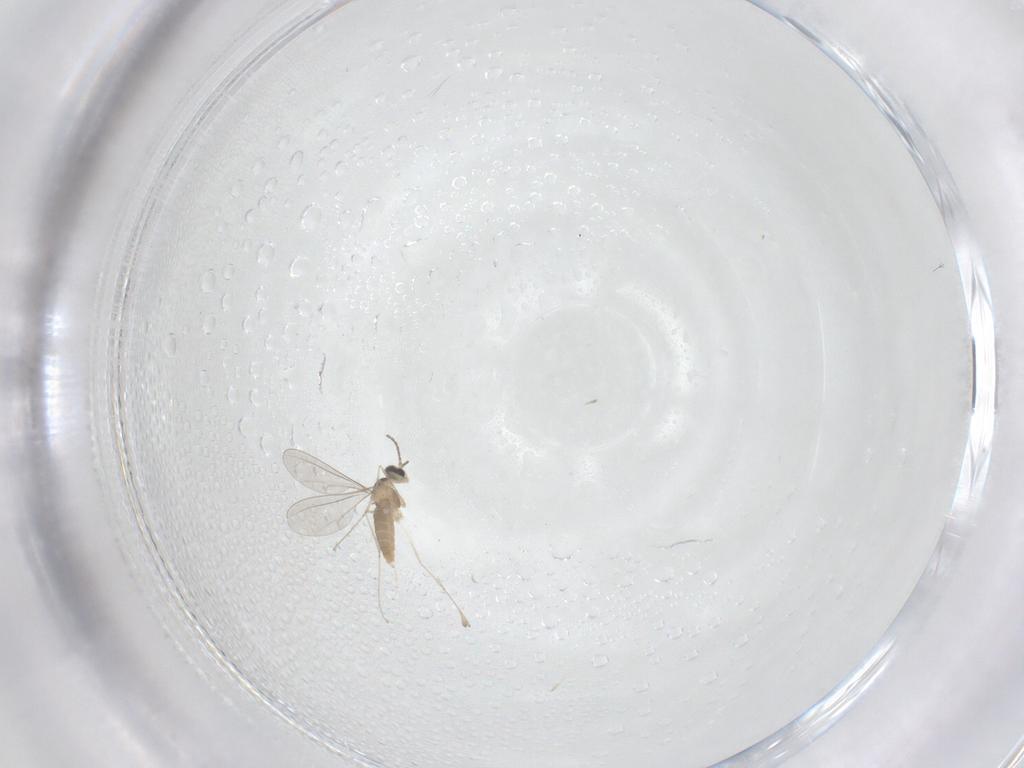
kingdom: Animalia
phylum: Arthropoda
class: Insecta
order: Diptera
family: Cecidomyiidae
